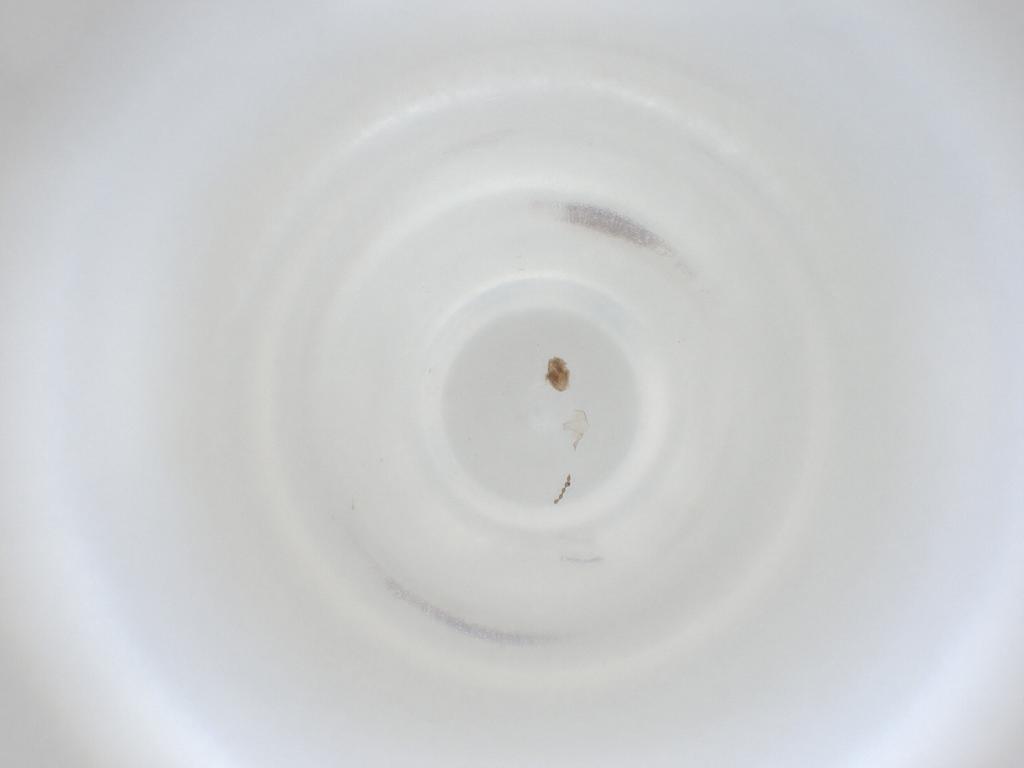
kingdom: Animalia
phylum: Arthropoda
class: Insecta
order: Diptera
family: Cecidomyiidae
